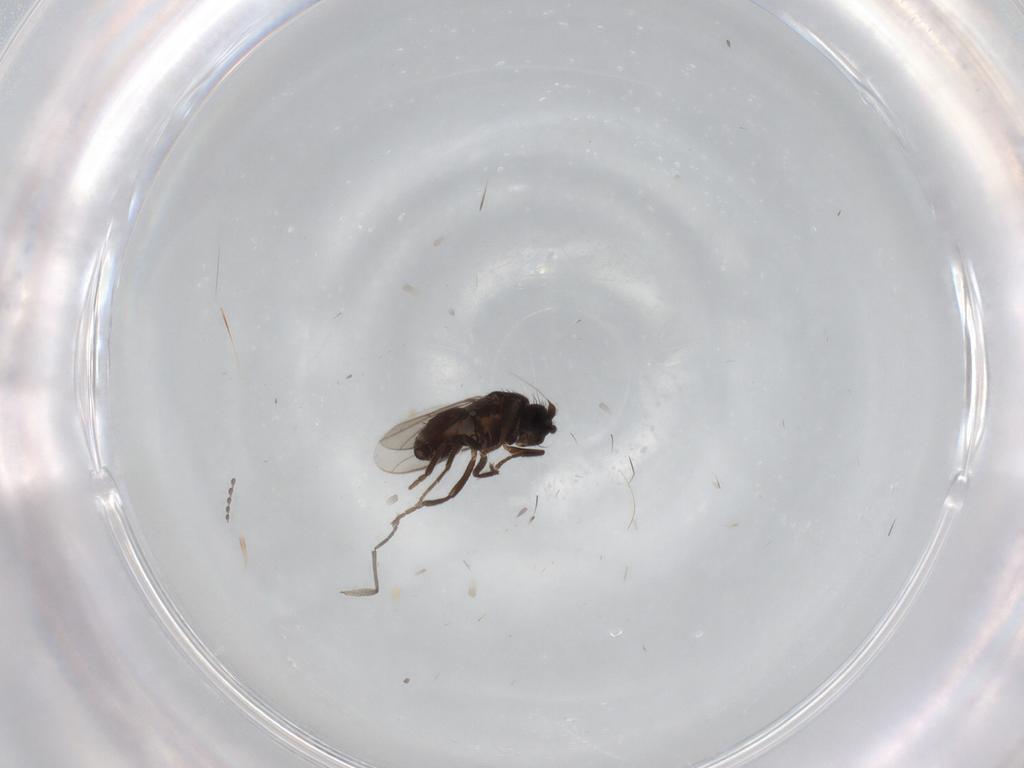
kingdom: Animalia
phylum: Arthropoda
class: Insecta
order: Diptera
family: Sciaridae
